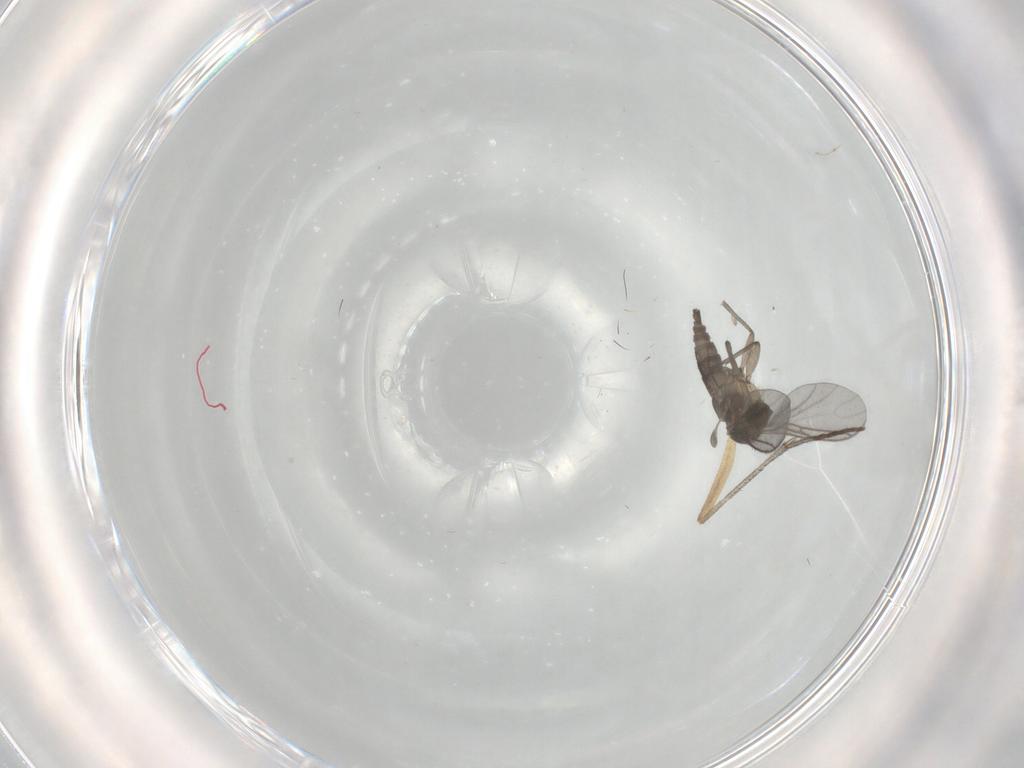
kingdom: Animalia
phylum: Arthropoda
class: Insecta
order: Diptera
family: Sciaridae
